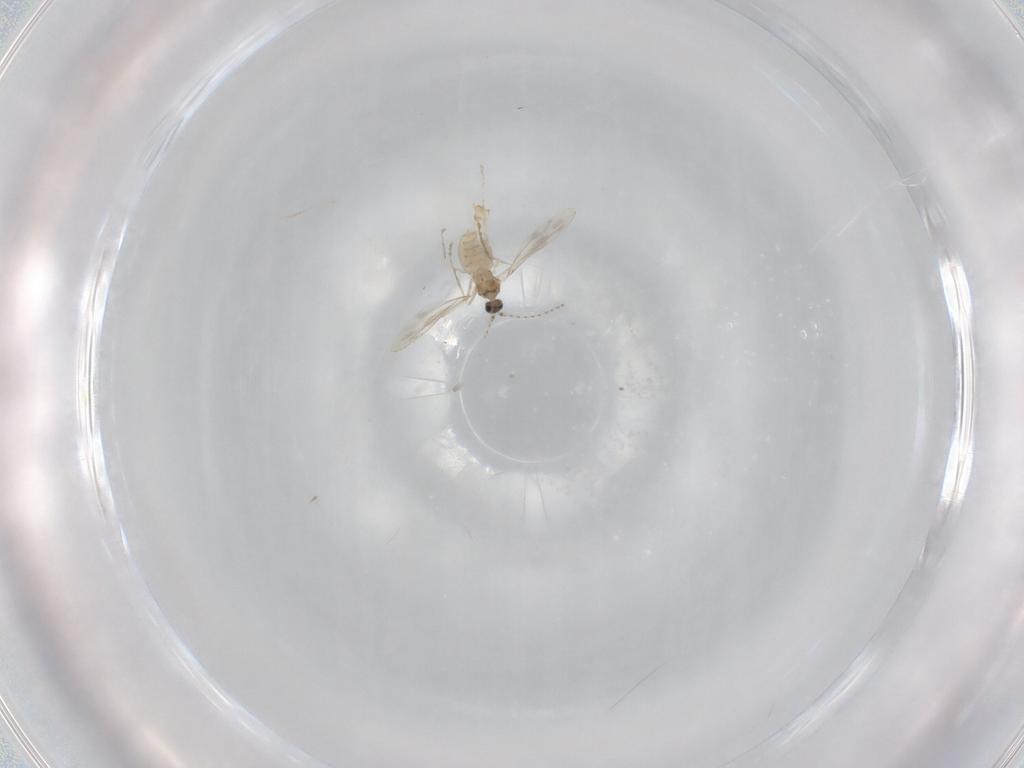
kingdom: Animalia
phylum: Arthropoda
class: Insecta
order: Diptera
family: Cecidomyiidae
